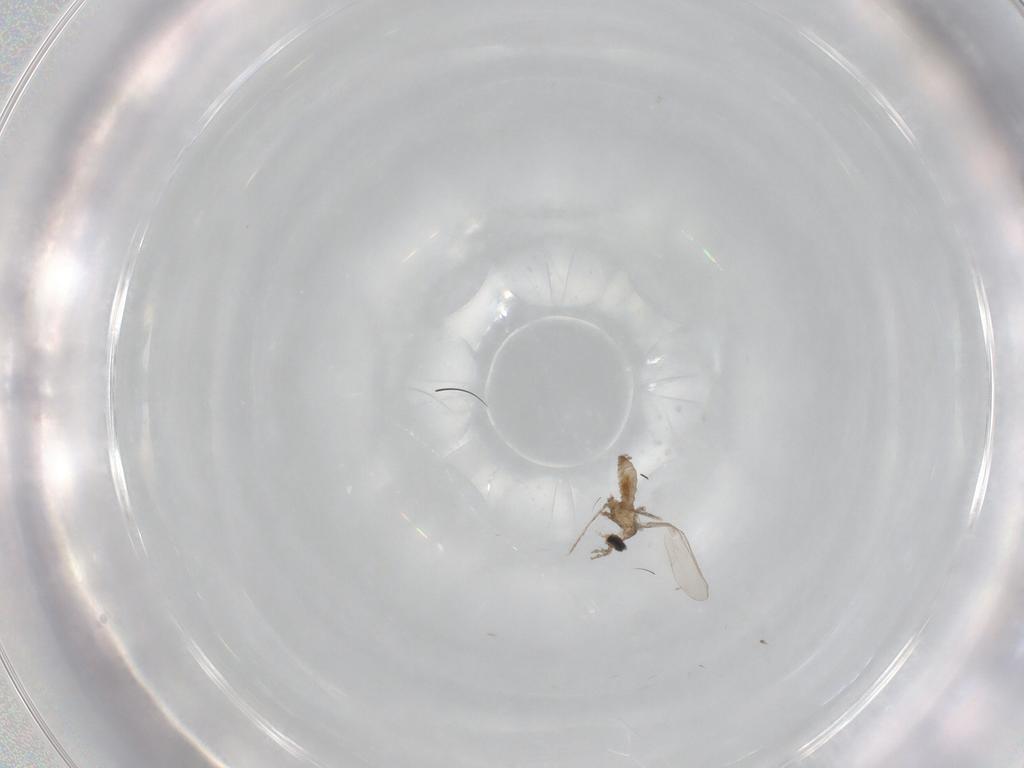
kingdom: Animalia
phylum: Arthropoda
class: Insecta
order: Diptera
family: Cecidomyiidae
